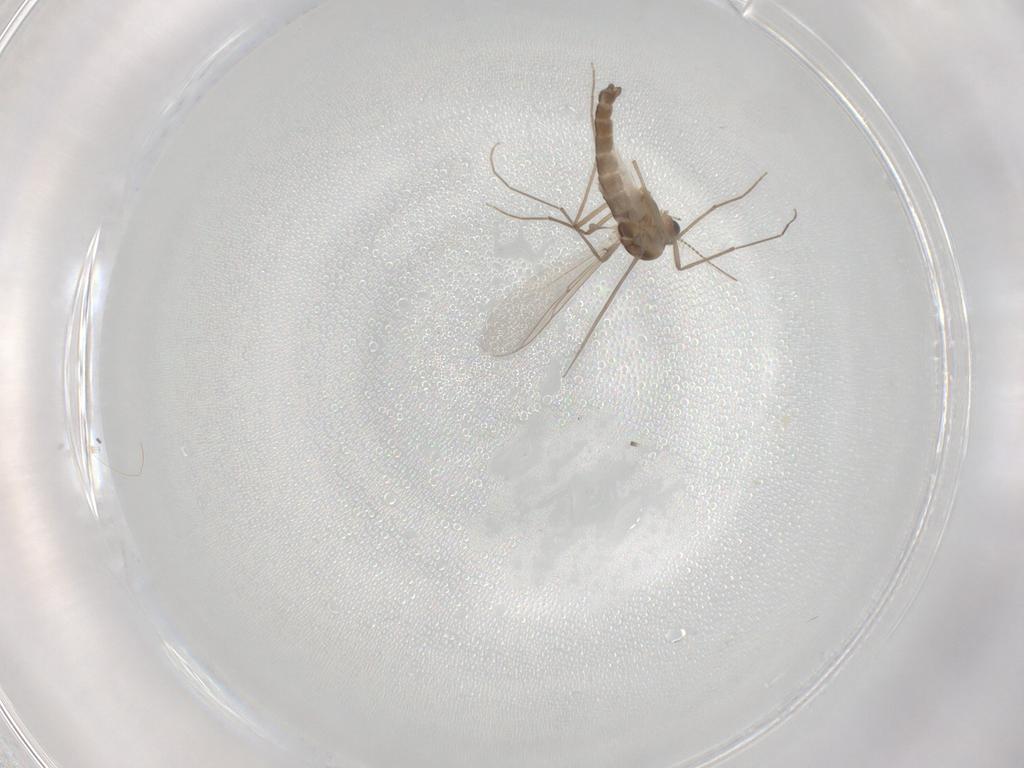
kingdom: Animalia
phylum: Arthropoda
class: Insecta
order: Diptera
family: Chironomidae
